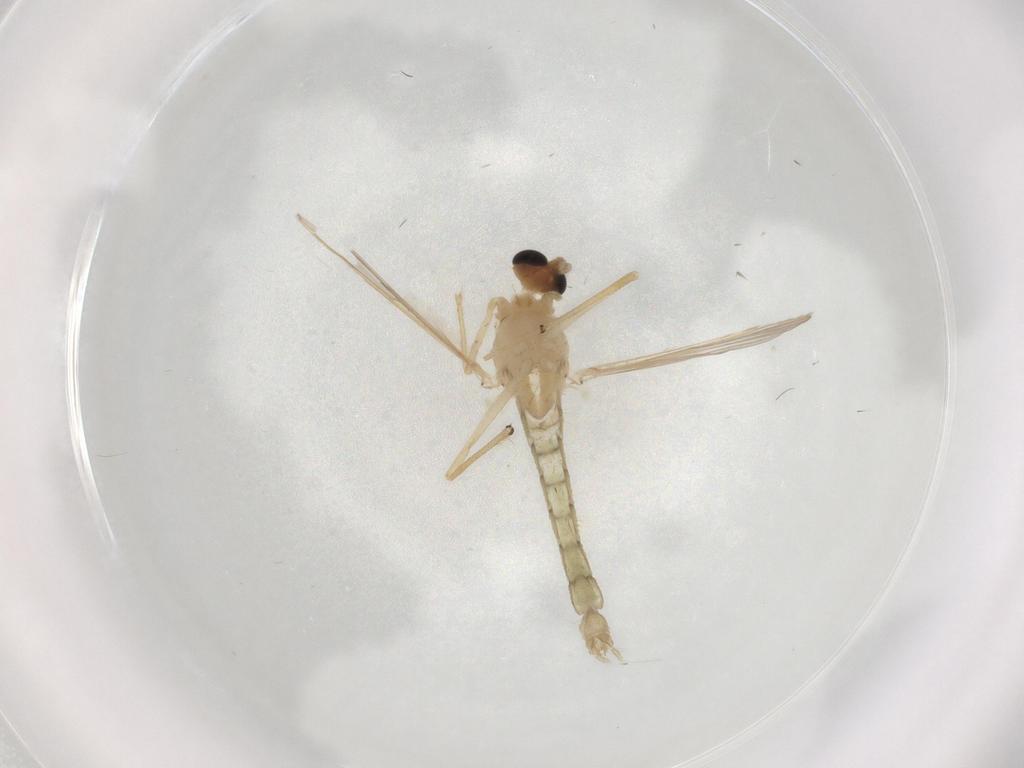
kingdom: Animalia
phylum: Arthropoda
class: Insecta
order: Diptera
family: Chironomidae
